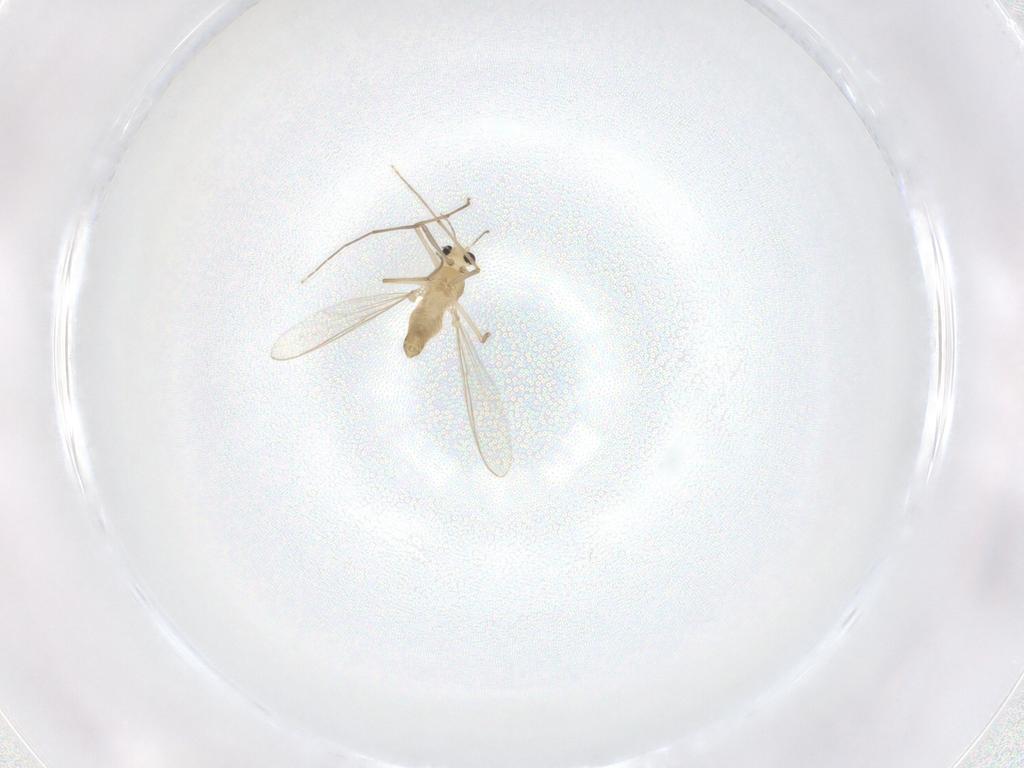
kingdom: Animalia
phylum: Arthropoda
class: Insecta
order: Diptera
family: Chironomidae
